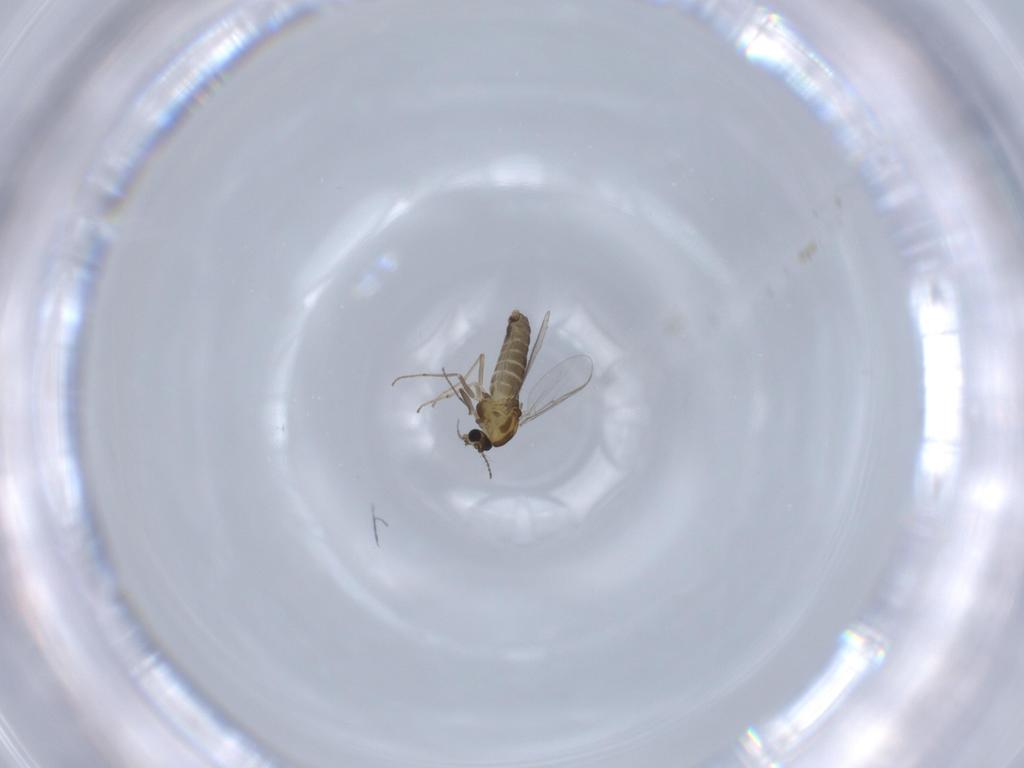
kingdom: Animalia
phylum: Arthropoda
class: Insecta
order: Diptera
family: Chironomidae
